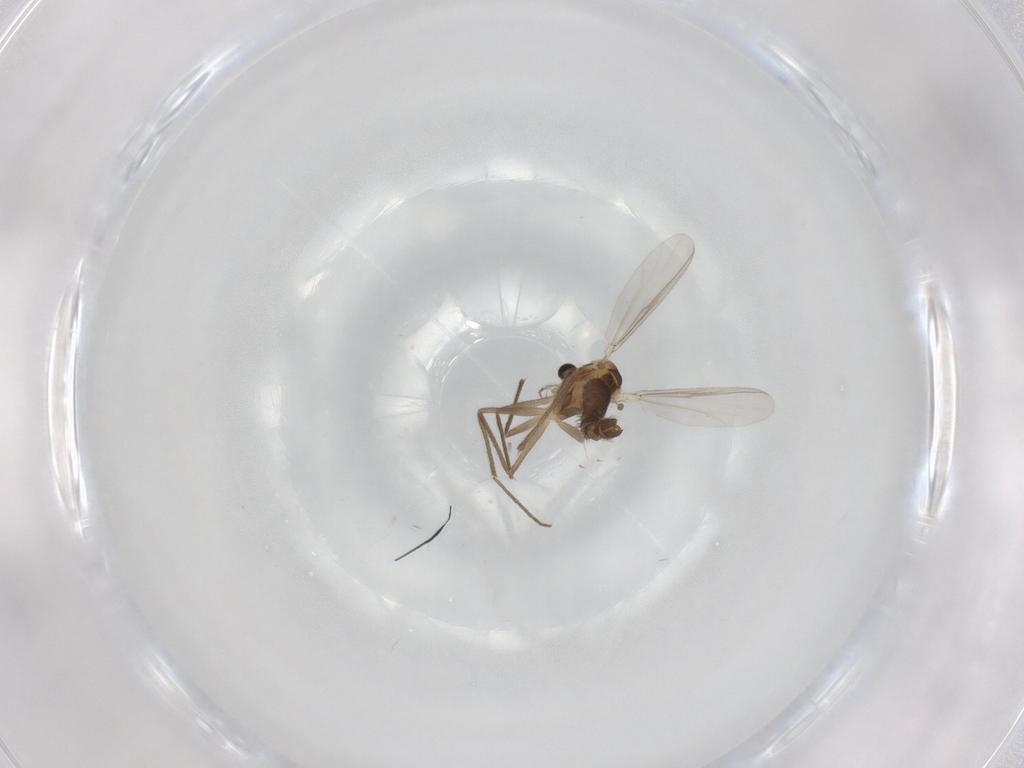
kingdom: Animalia
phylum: Arthropoda
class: Insecta
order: Diptera
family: Chironomidae
